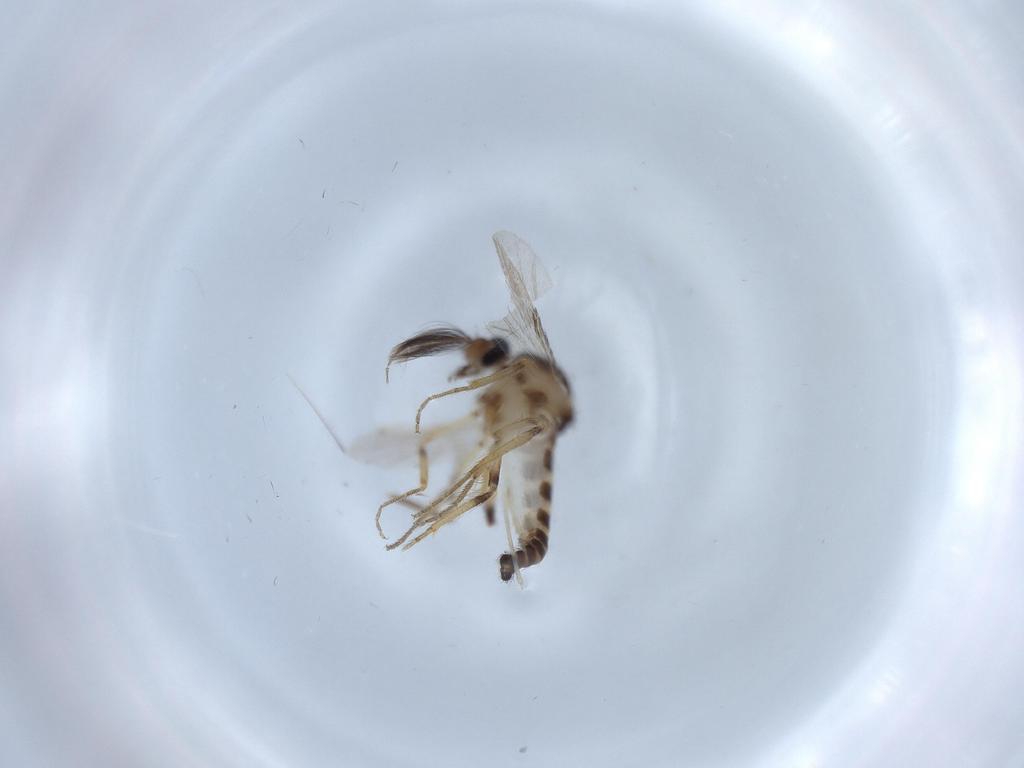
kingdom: Animalia
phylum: Arthropoda
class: Insecta
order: Diptera
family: Ceratopogonidae
